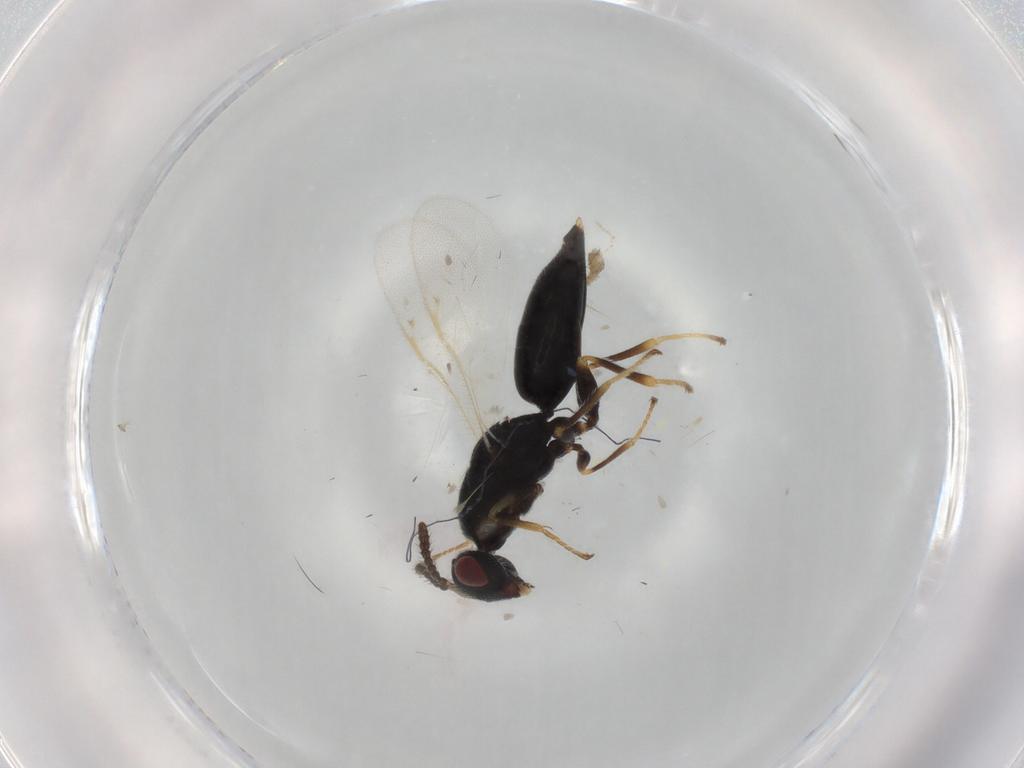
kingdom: Animalia
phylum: Arthropoda
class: Insecta
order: Hymenoptera
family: Eurytomidae
